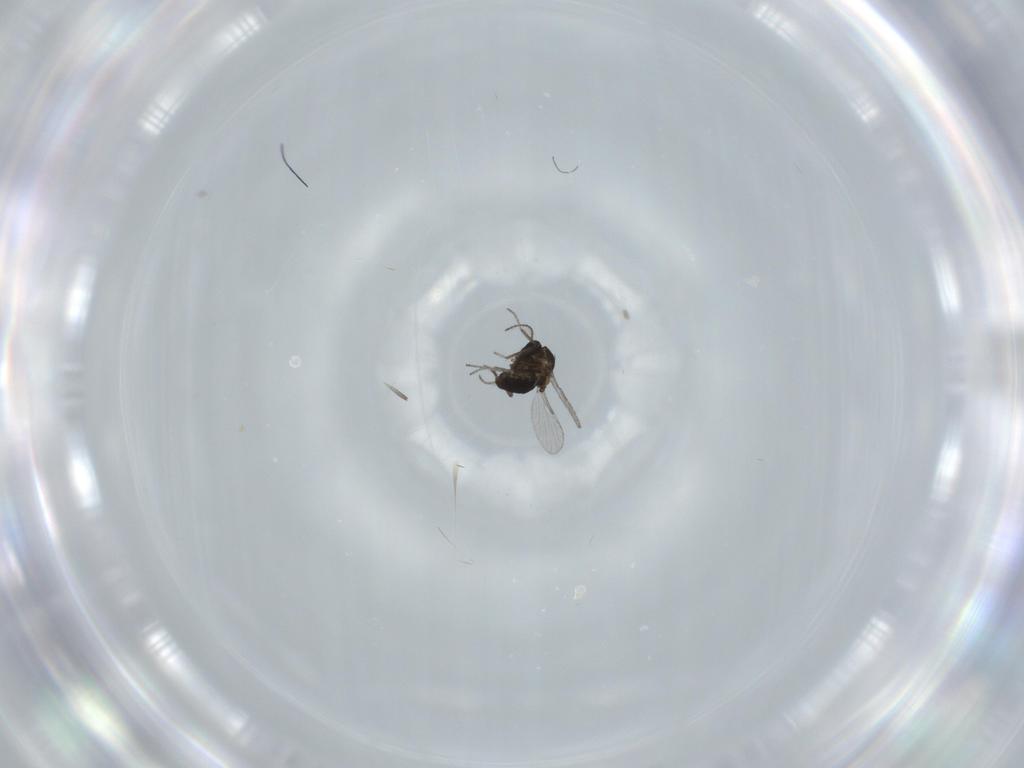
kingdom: Animalia
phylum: Arthropoda
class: Insecta
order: Diptera
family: Ceratopogonidae
